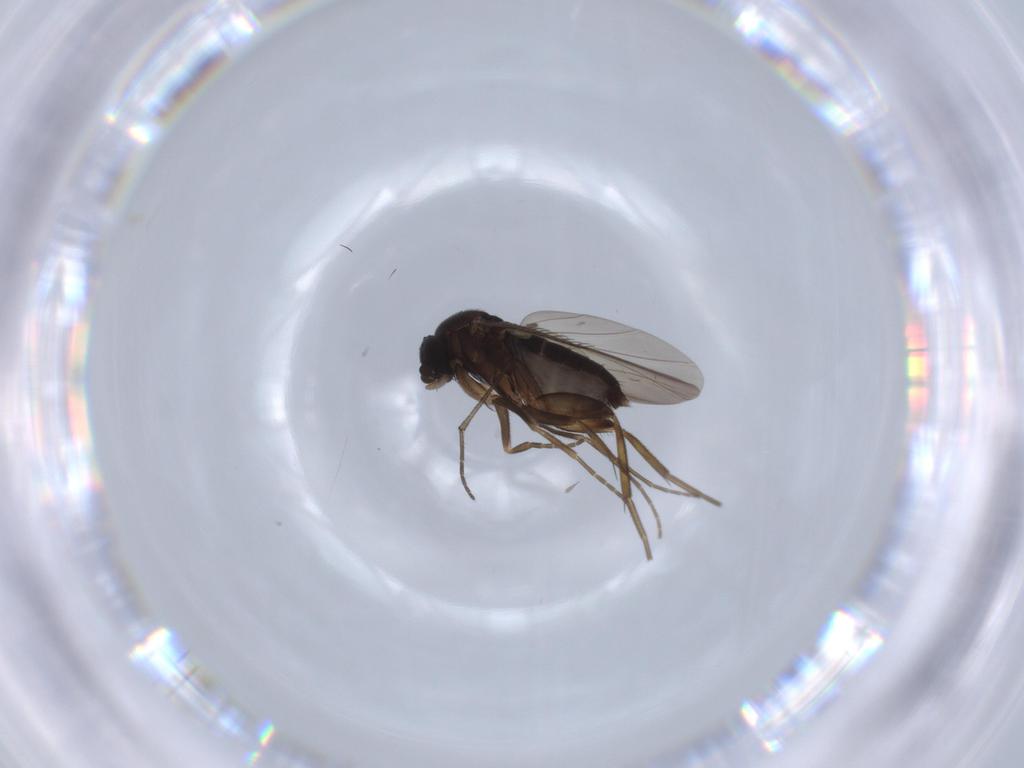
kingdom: Animalia
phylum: Arthropoda
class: Insecta
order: Diptera
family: Phoridae
